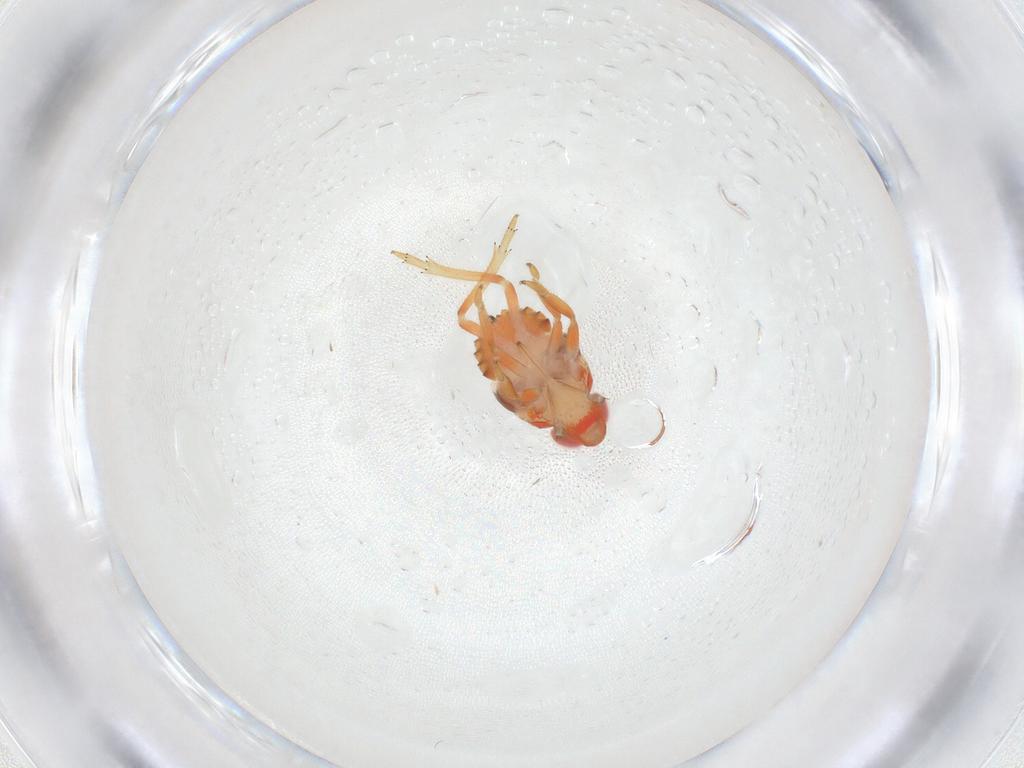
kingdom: Animalia
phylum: Arthropoda
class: Insecta
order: Hemiptera
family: Issidae
